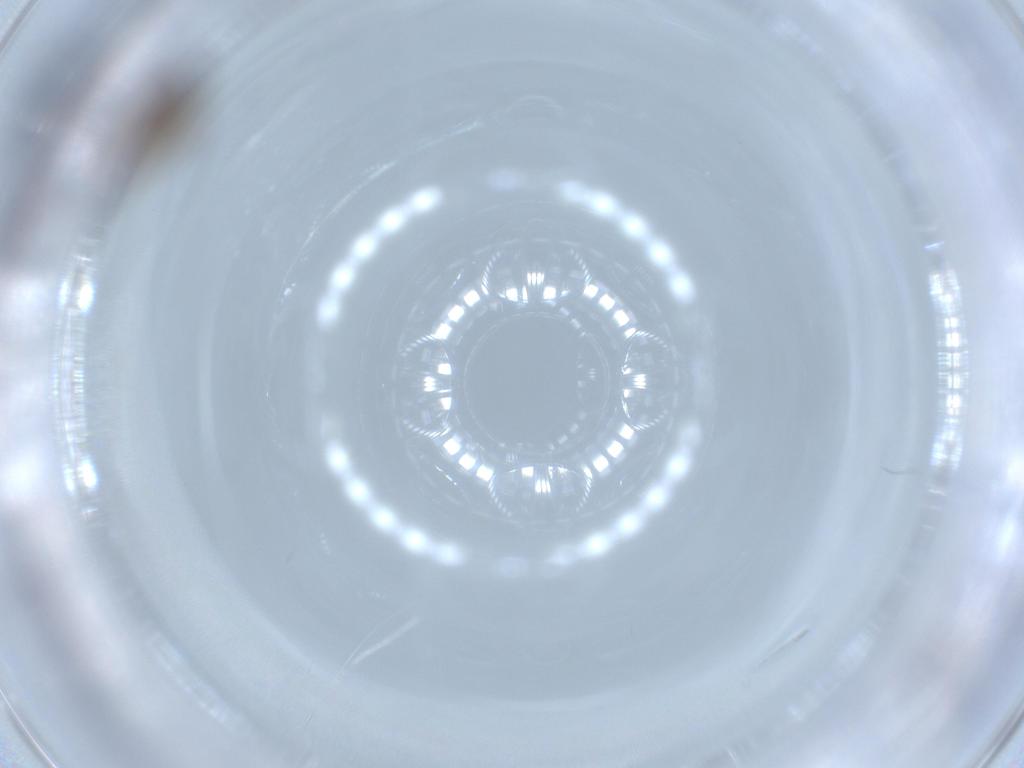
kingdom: Animalia
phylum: Arthropoda
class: Insecta
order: Diptera
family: Ceratopogonidae
